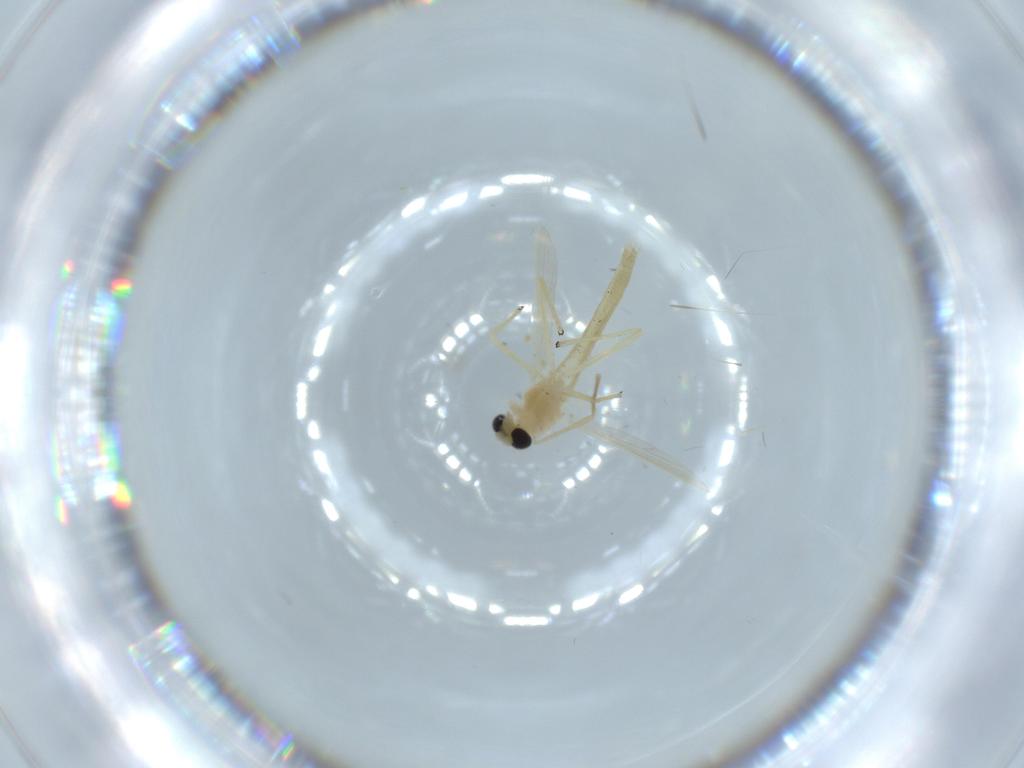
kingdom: Animalia
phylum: Arthropoda
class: Insecta
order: Diptera
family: Chironomidae
